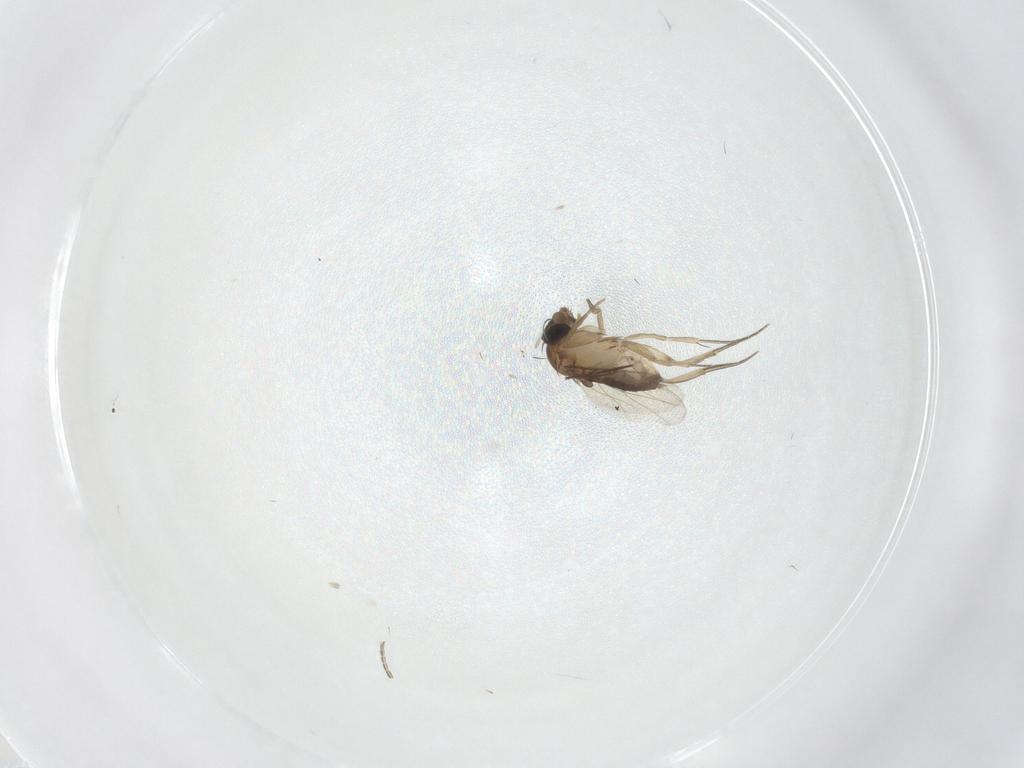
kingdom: Animalia
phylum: Arthropoda
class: Insecta
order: Diptera
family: Phoridae
